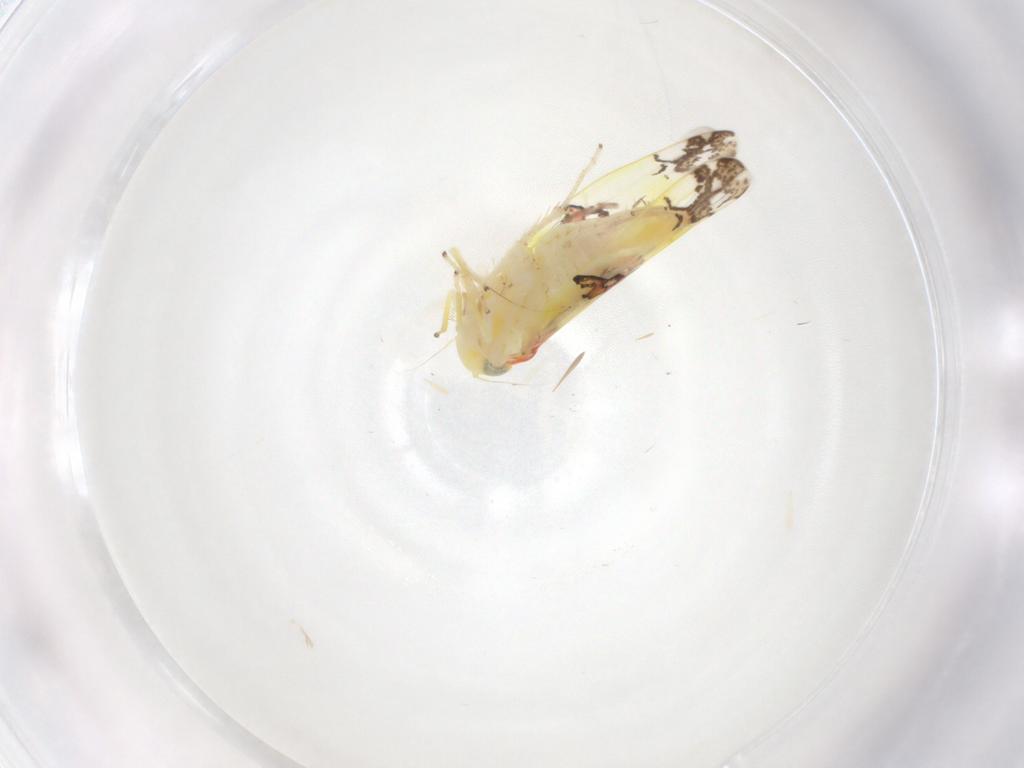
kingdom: Animalia
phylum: Arthropoda
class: Insecta
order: Hemiptera
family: Cicadellidae
